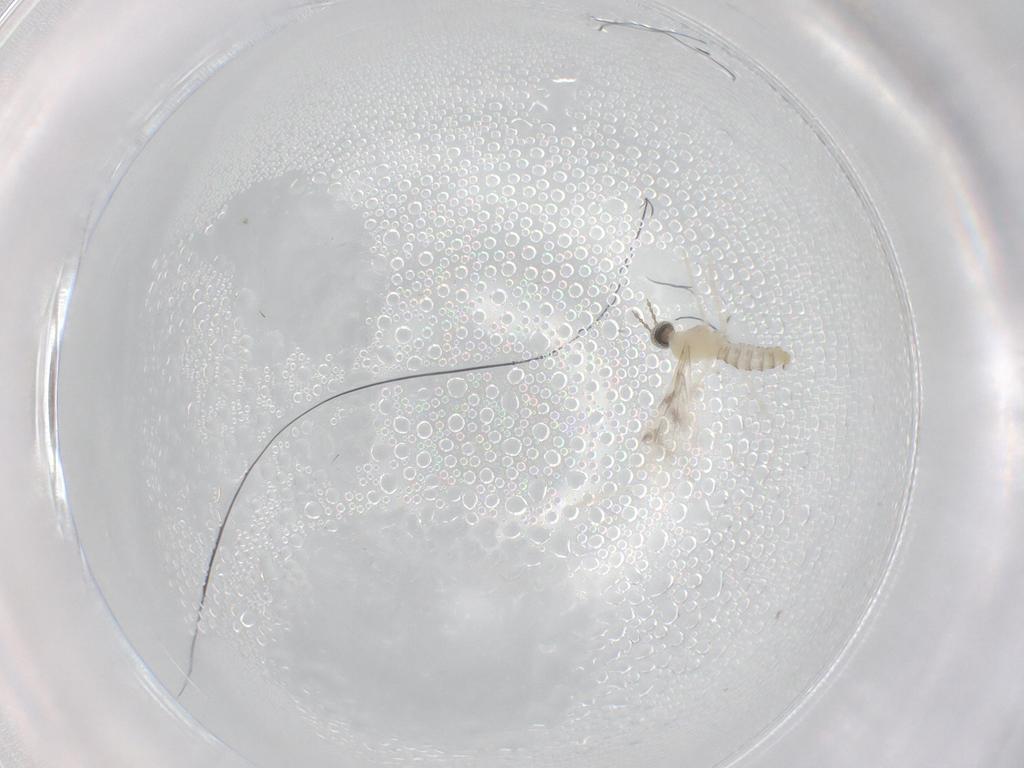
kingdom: Animalia
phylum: Arthropoda
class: Insecta
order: Diptera
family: Cecidomyiidae
